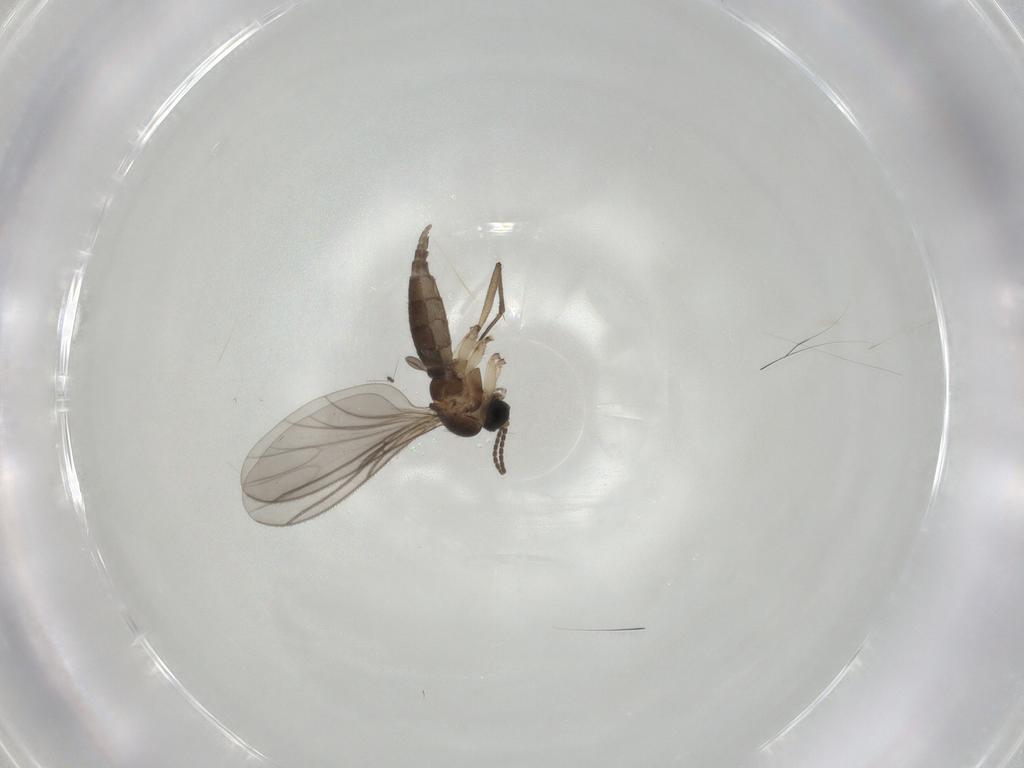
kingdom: Animalia
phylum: Arthropoda
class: Insecta
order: Diptera
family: Sciaridae
